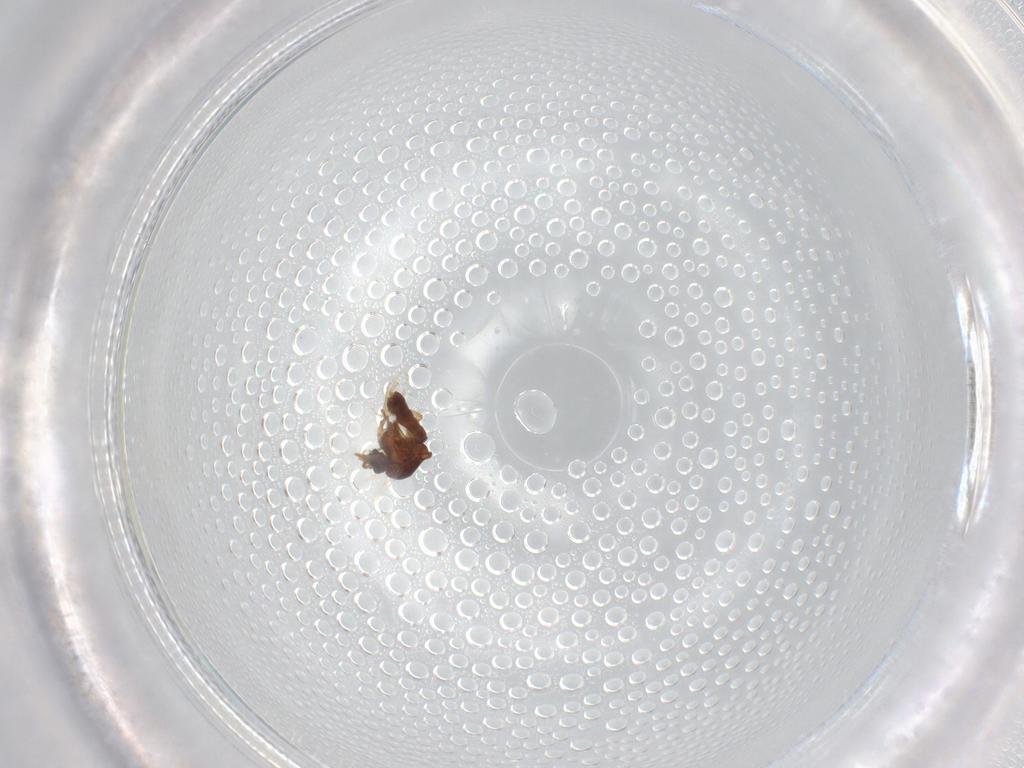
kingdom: Animalia
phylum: Arthropoda
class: Insecta
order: Diptera
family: Ceratopogonidae
